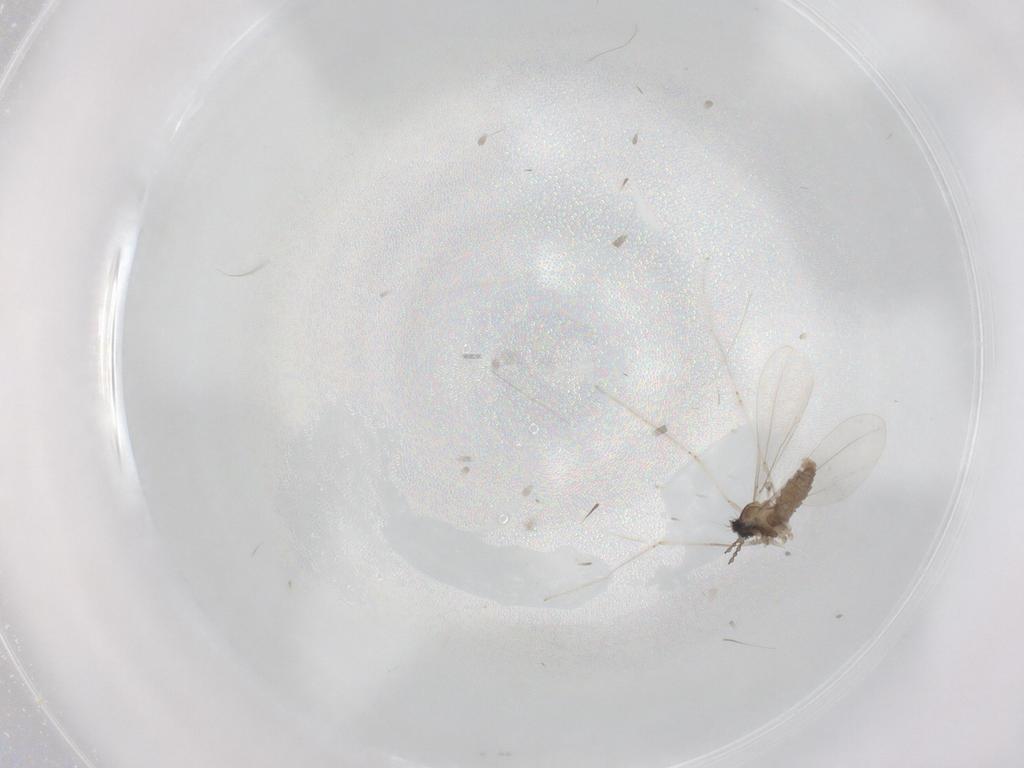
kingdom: Animalia
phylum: Arthropoda
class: Insecta
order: Diptera
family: Cecidomyiidae
